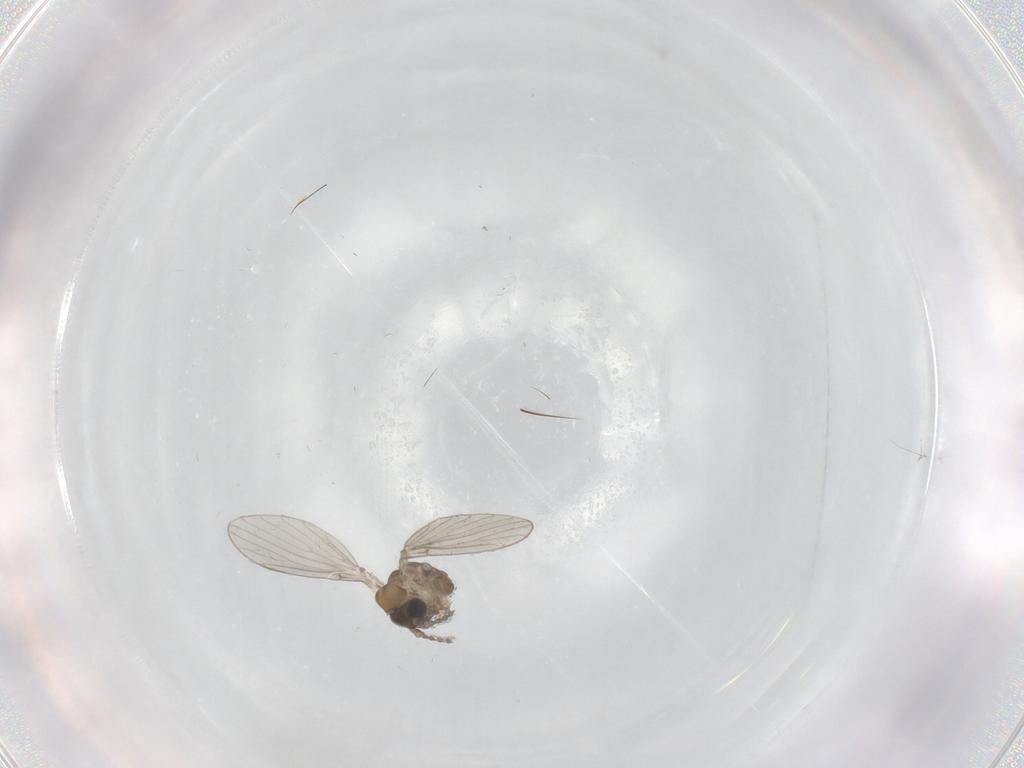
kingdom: Animalia
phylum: Arthropoda
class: Insecta
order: Diptera
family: Psychodidae
